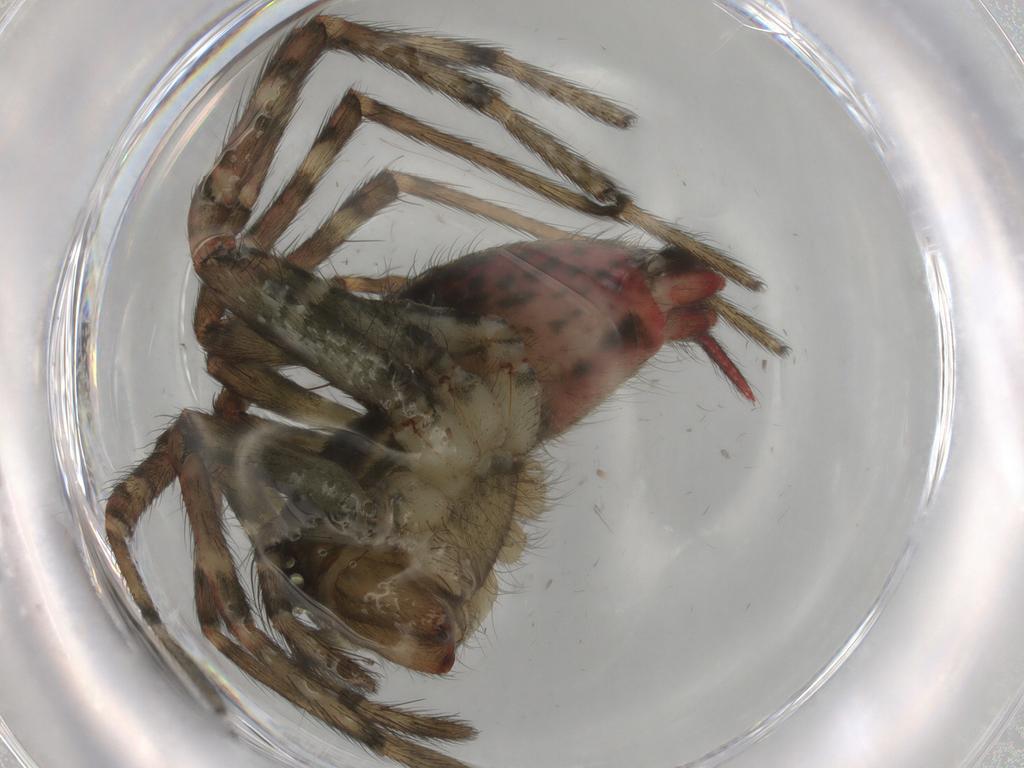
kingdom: Animalia
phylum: Arthropoda
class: Arachnida
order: Araneae
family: Agelenidae
